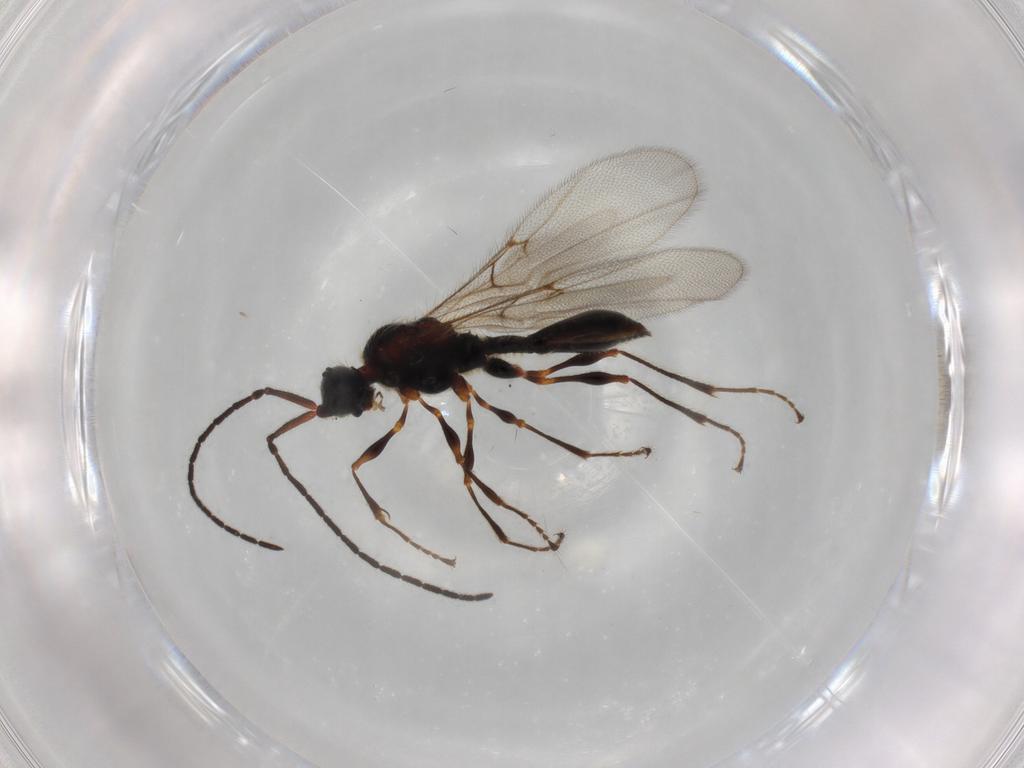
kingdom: Animalia
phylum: Arthropoda
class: Insecta
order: Hymenoptera
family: Diapriidae
